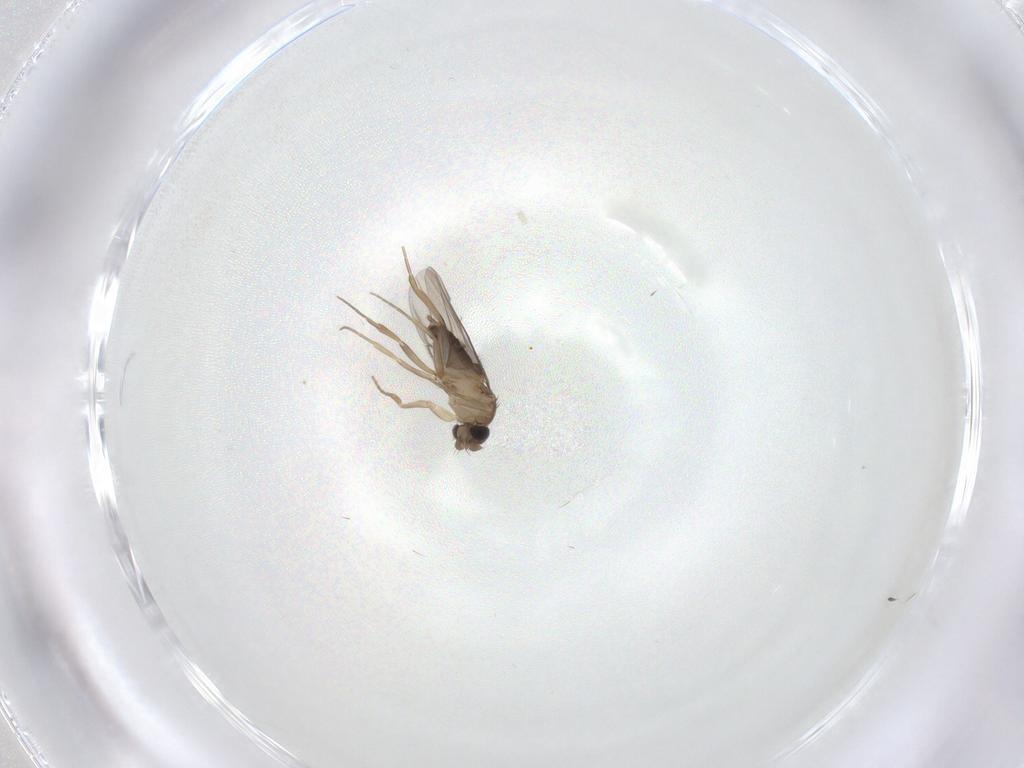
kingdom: Animalia
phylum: Arthropoda
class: Insecta
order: Diptera
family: Phoridae
